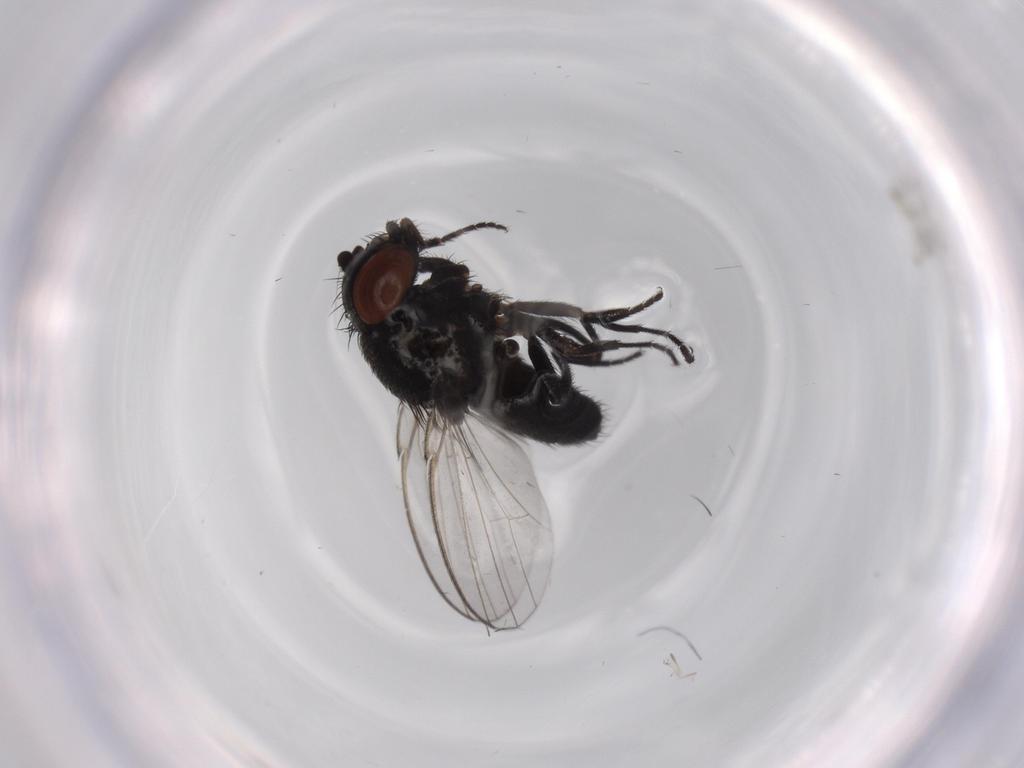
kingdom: Animalia
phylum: Arthropoda
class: Insecta
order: Diptera
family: Milichiidae
